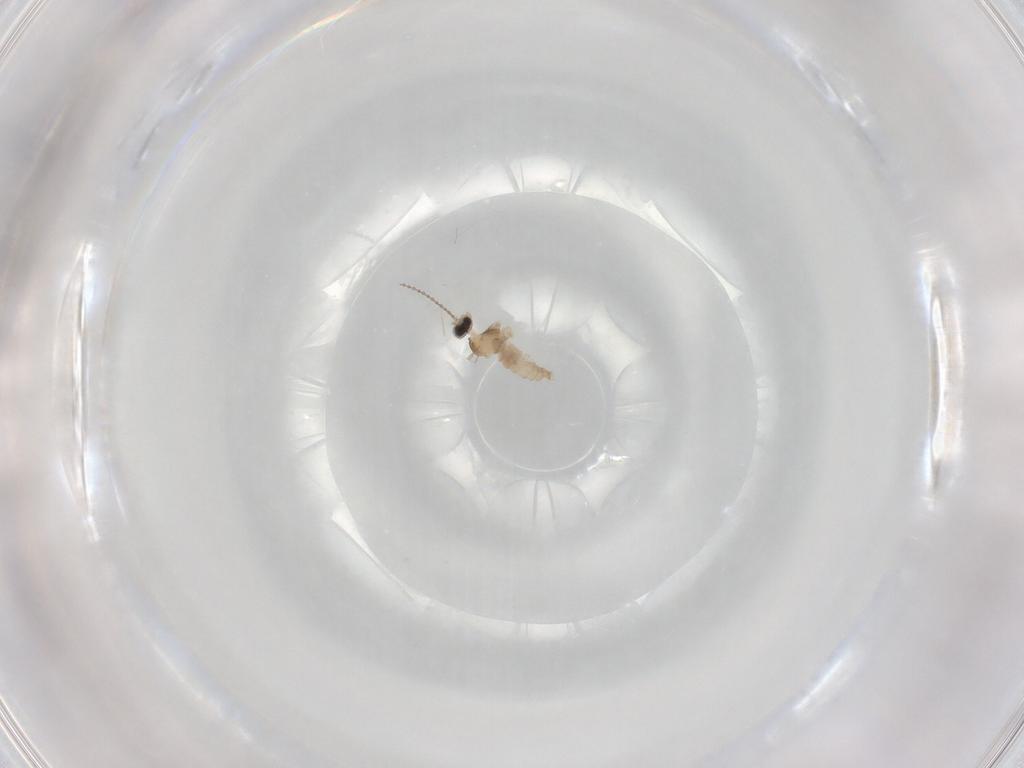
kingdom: Animalia
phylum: Arthropoda
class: Insecta
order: Diptera
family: Cecidomyiidae
